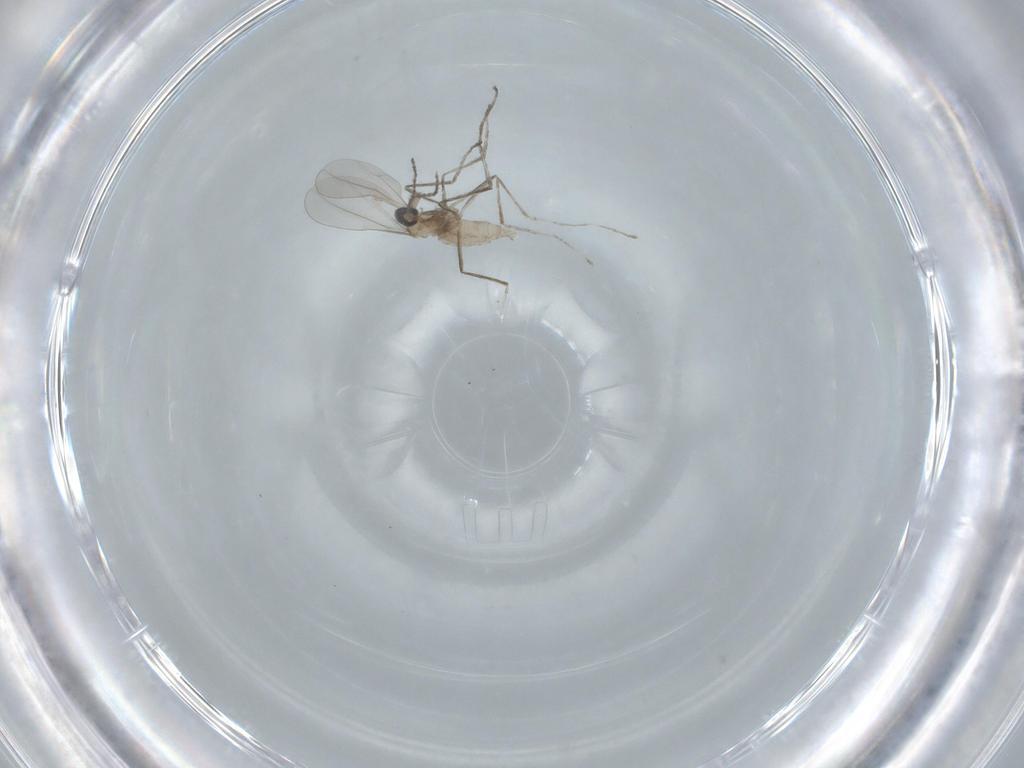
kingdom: Animalia
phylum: Arthropoda
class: Insecta
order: Diptera
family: Cecidomyiidae
